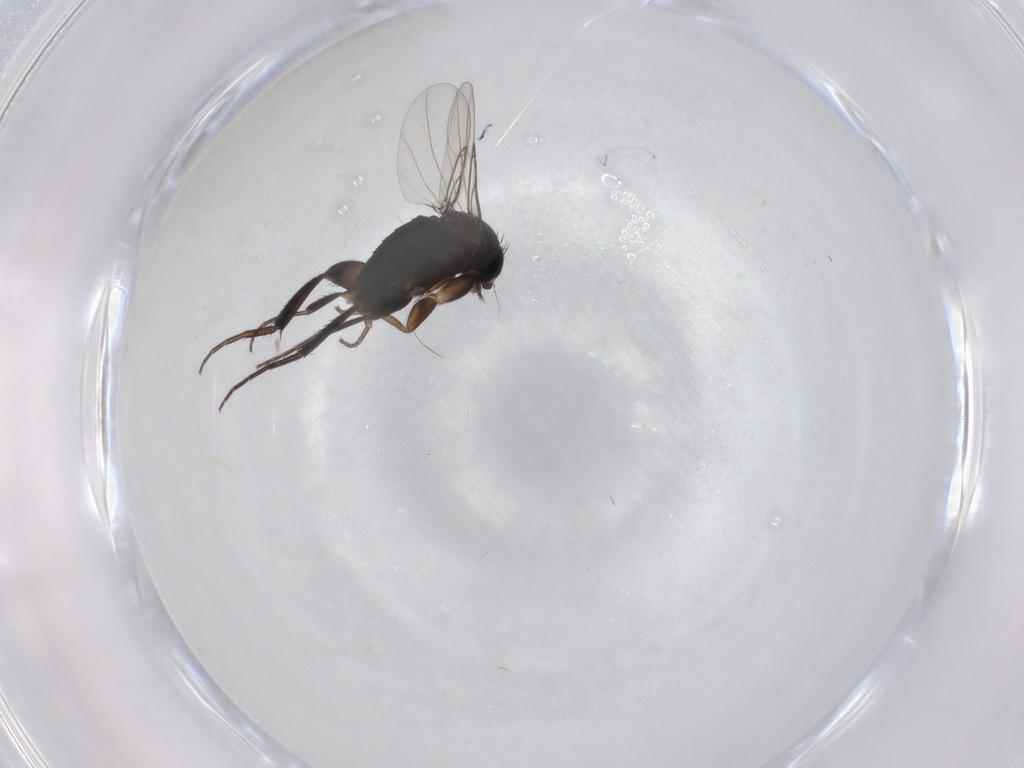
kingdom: Animalia
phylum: Arthropoda
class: Insecta
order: Diptera
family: Phoridae
